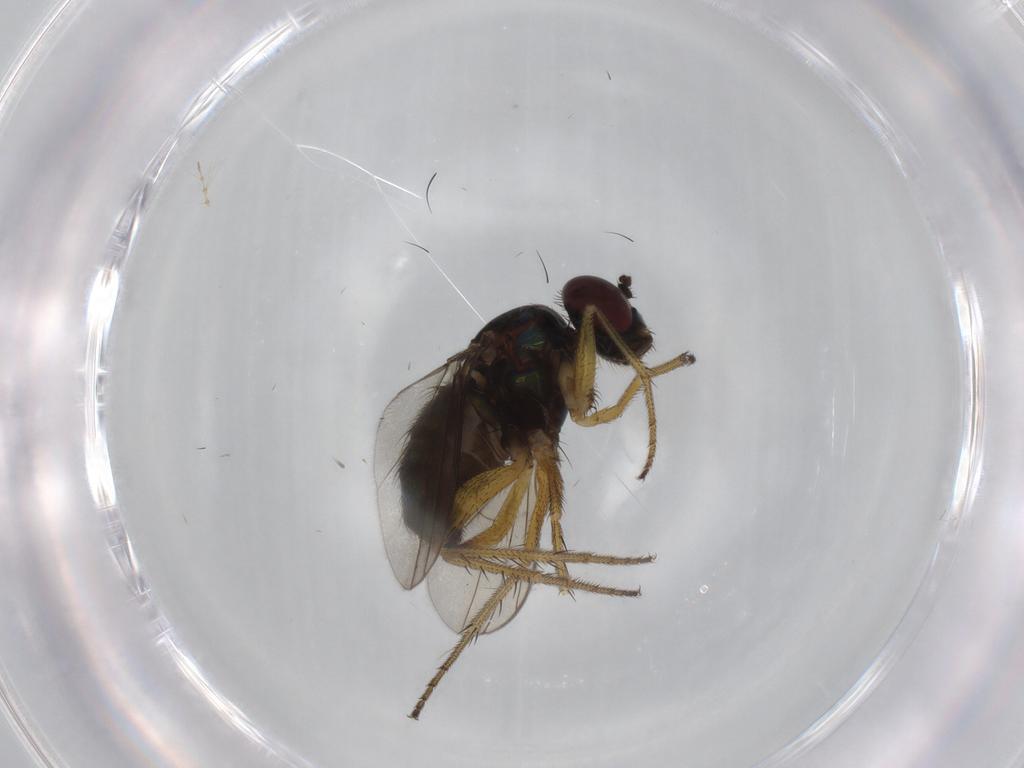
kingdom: Animalia
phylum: Arthropoda
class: Insecta
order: Diptera
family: Dolichopodidae
